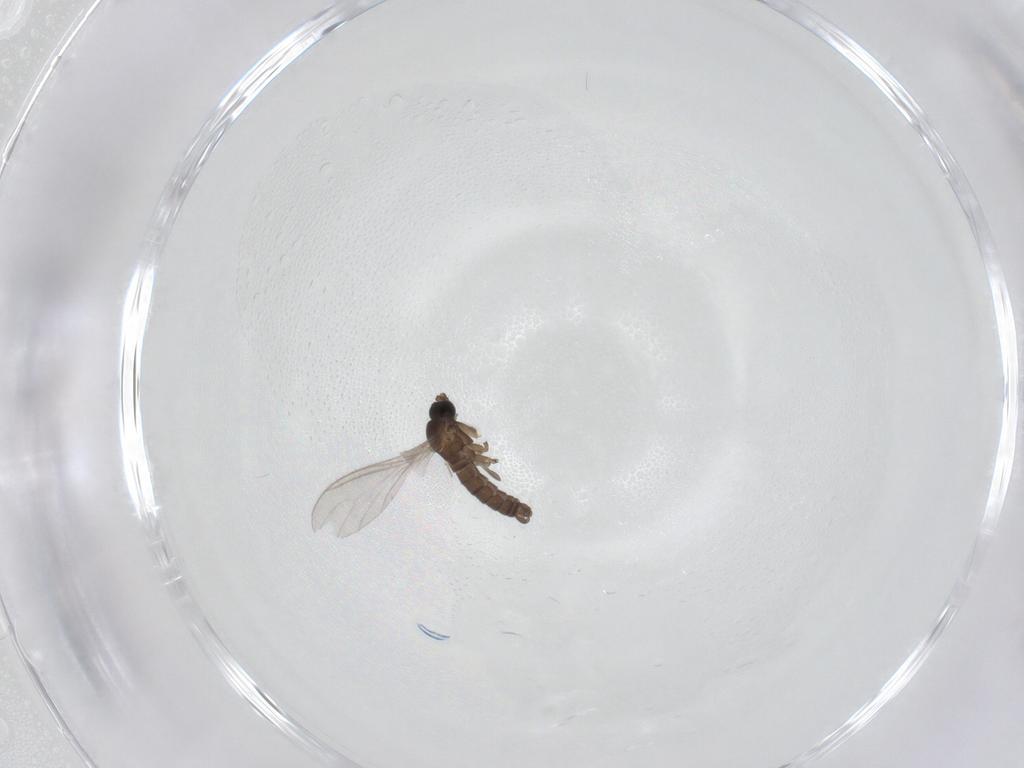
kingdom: Animalia
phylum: Arthropoda
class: Insecta
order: Diptera
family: Sciaridae
